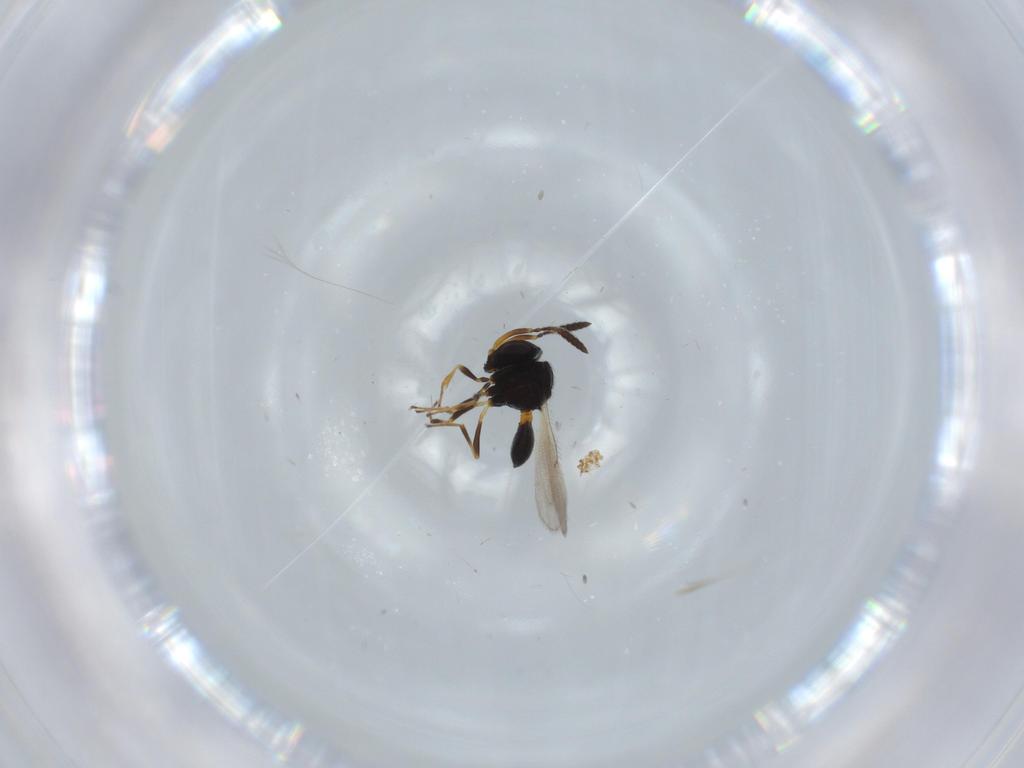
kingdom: Animalia
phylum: Arthropoda
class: Insecta
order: Hymenoptera
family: Scelionidae
